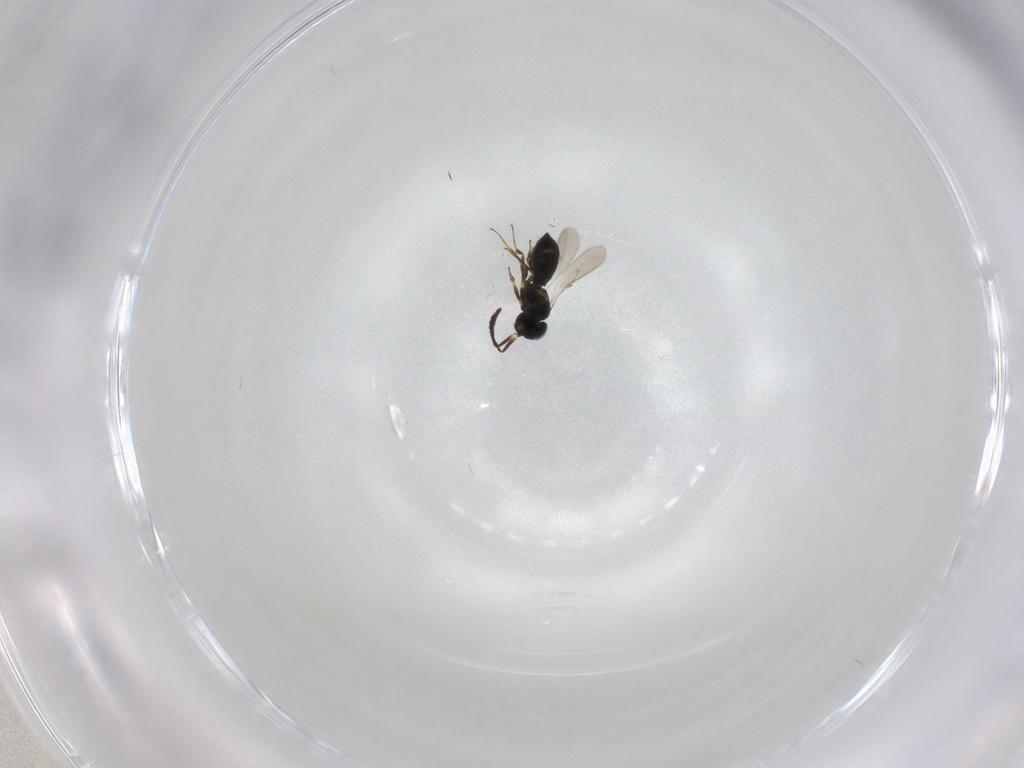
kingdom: Animalia
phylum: Arthropoda
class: Insecta
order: Hymenoptera
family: Scelionidae
